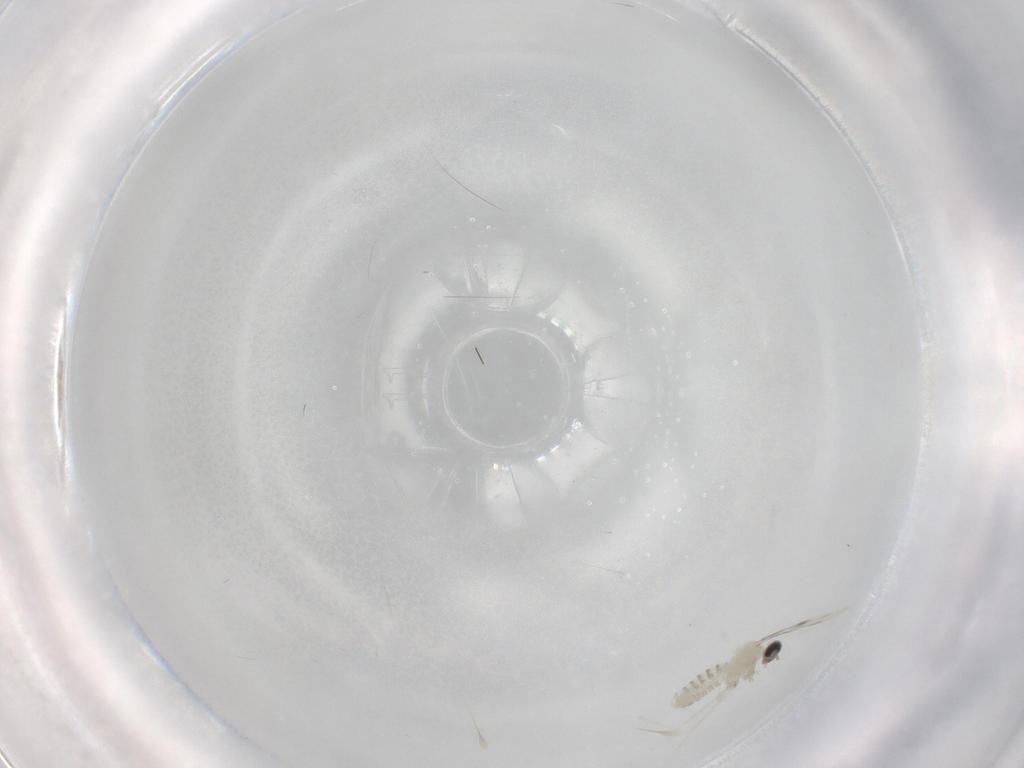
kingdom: Animalia
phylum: Arthropoda
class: Insecta
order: Diptera
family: Cecidomyiidae
